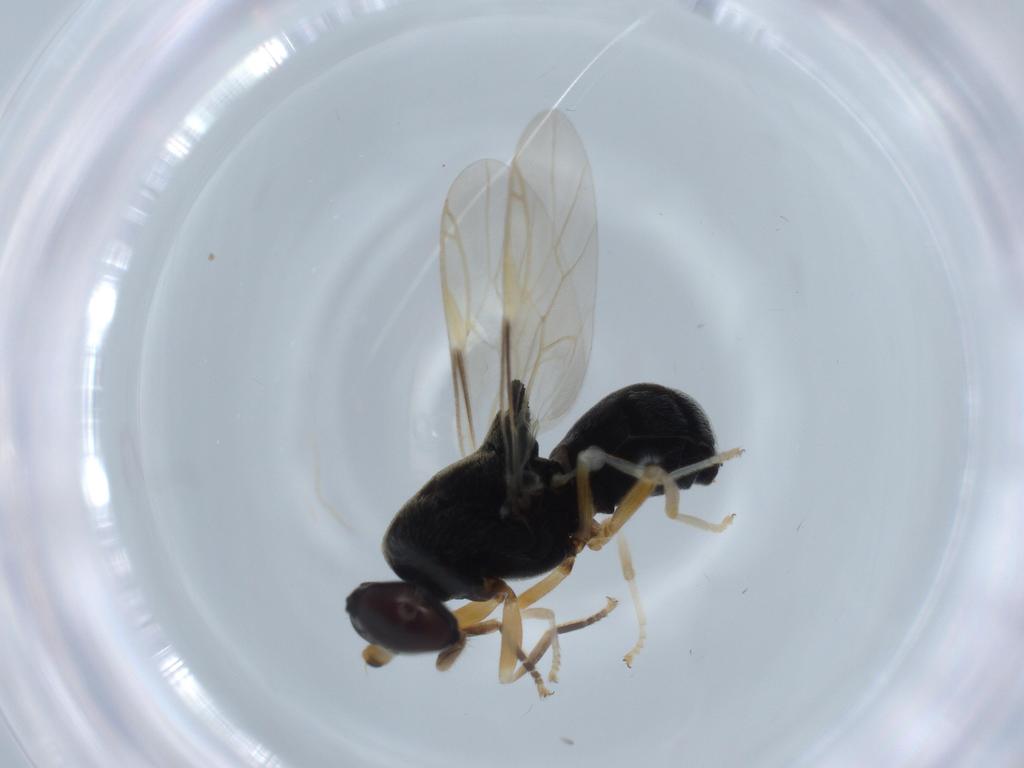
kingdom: Animalia
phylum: Arthropoda
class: Insecta
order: Diptera
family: Stratiomyidae
